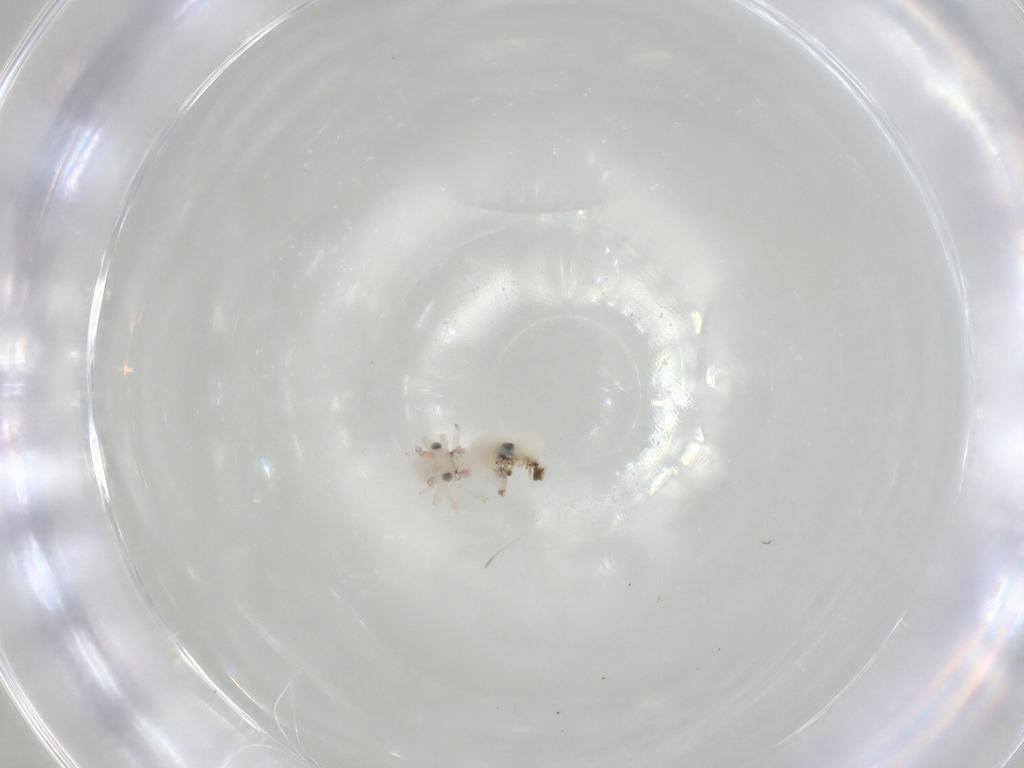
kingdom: Animalia
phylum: Arthropoda
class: Insecta
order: Psocodea
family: Caeciliusidae
